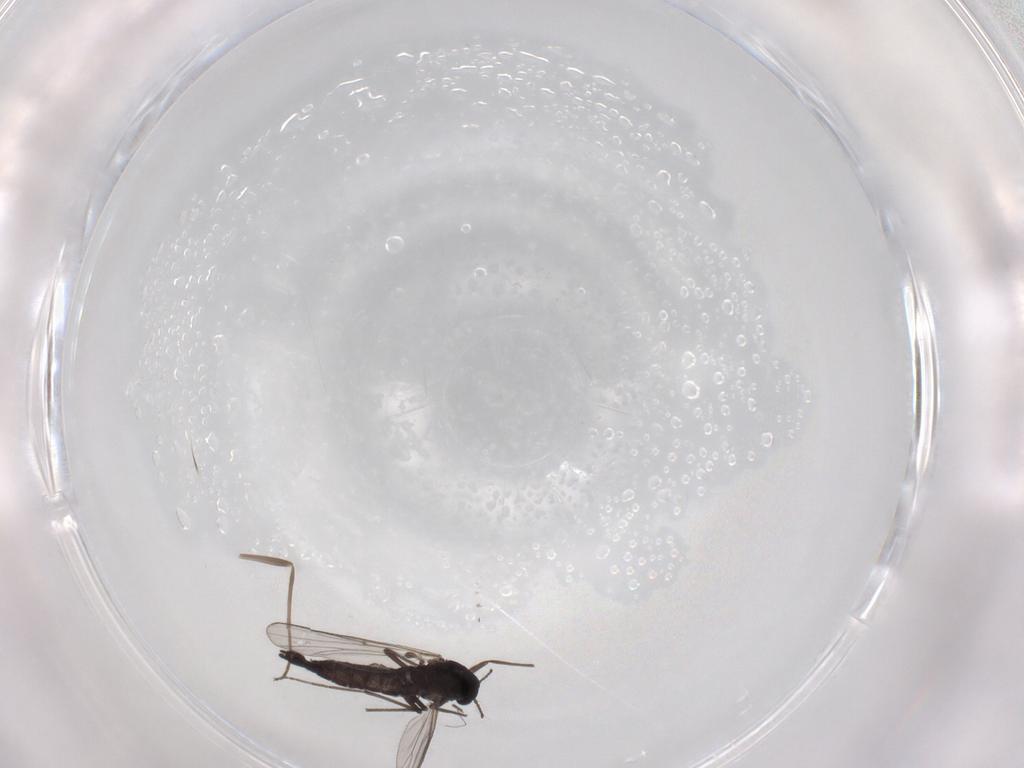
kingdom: Animalia
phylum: Arthropoda
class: Insecta
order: Diptera
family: Chironomidae
